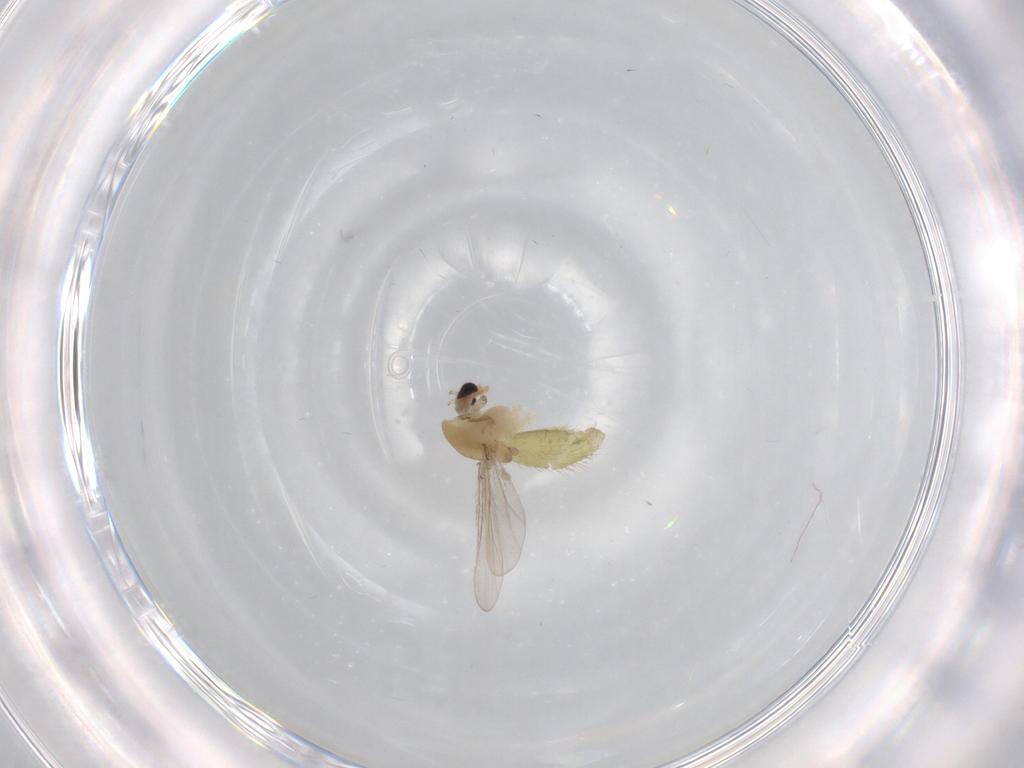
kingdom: Animalia
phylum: Arthropoda
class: Insecta
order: Diptera
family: Chironomidae
